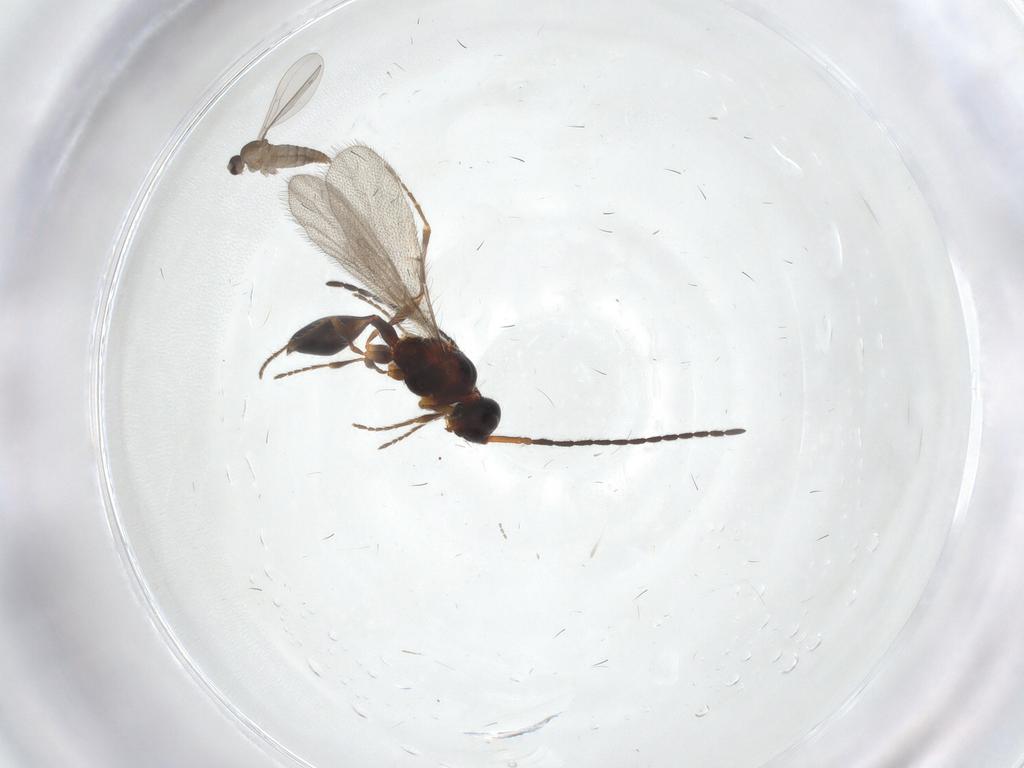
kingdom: Animalia
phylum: Arthropoda
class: Insecta
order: Diptera
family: Cecidomyiidae
